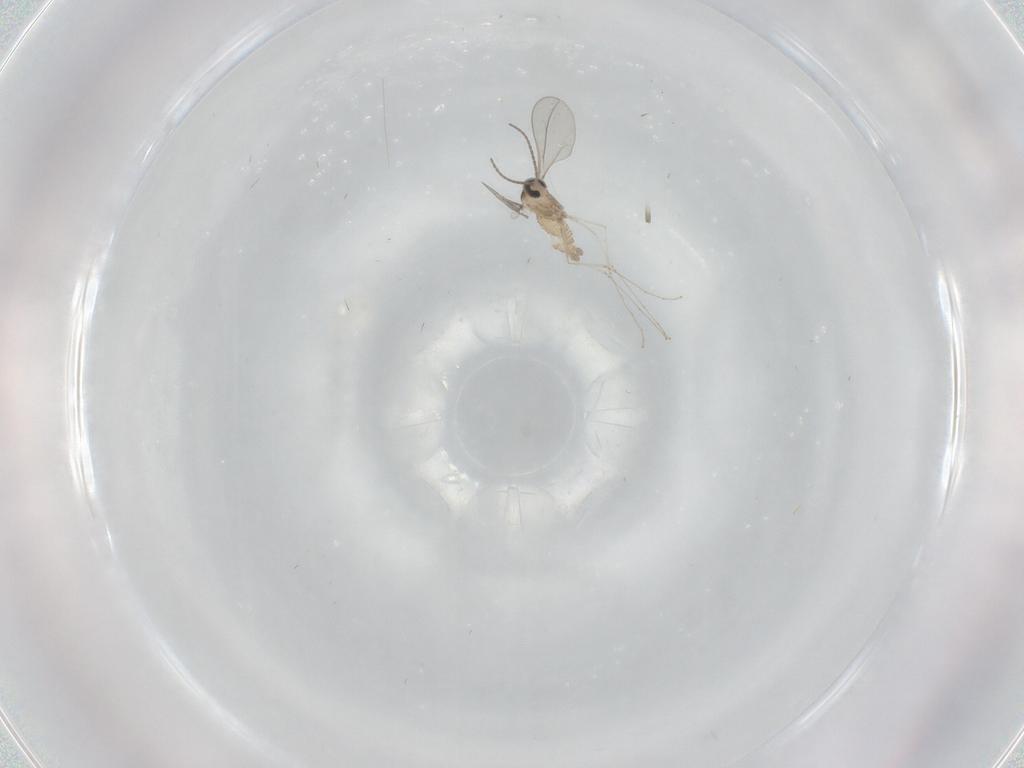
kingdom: Animalia
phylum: Arthropoda
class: Insecta
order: Diptera
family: Cecidomyiidae
